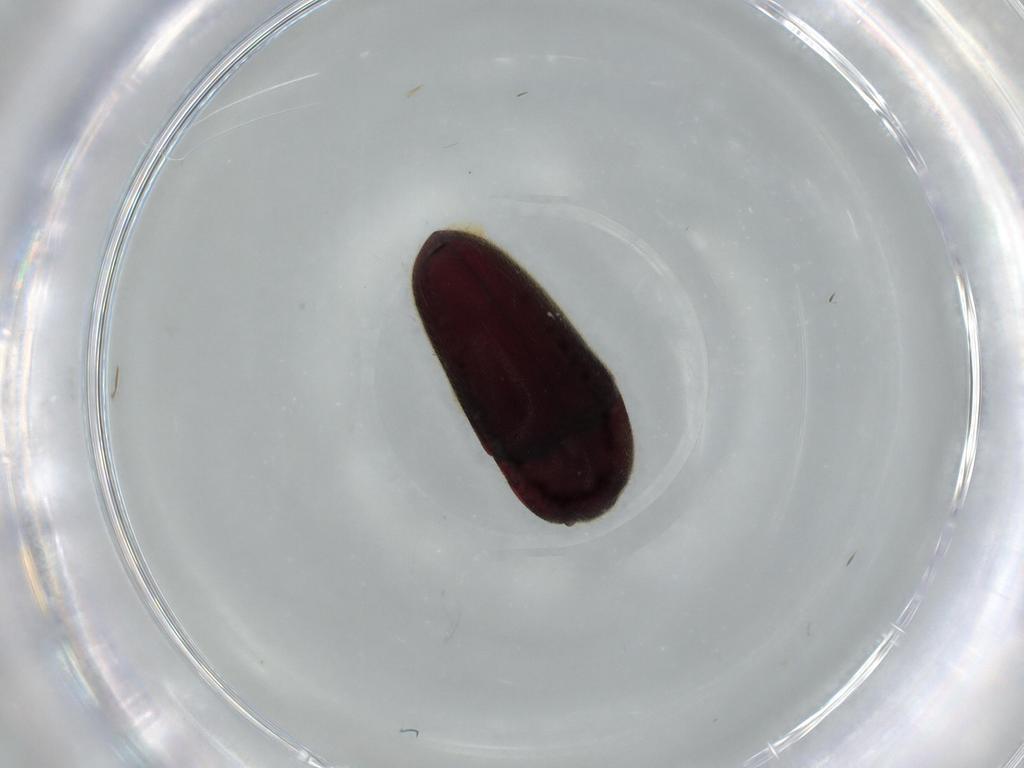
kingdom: Animalia
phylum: Arthropoda
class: Insecta
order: Coleoptera
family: Throscidae
